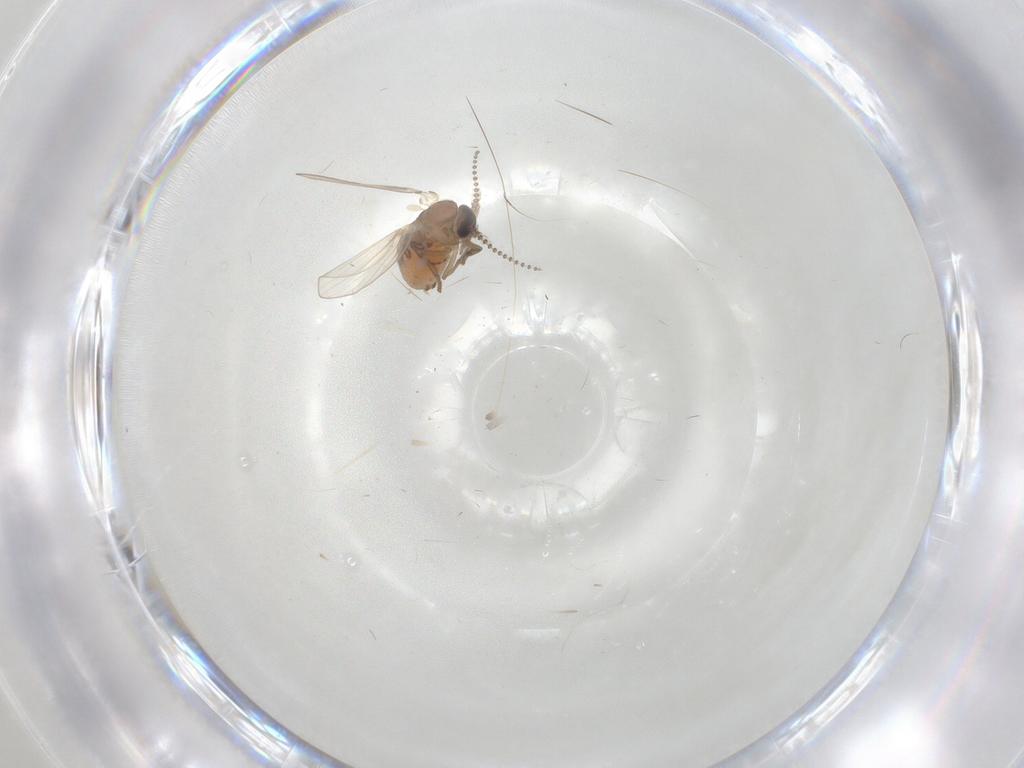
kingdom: Animalia
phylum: Arthropoda
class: Insecta
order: Diptera
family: Psychodidae
